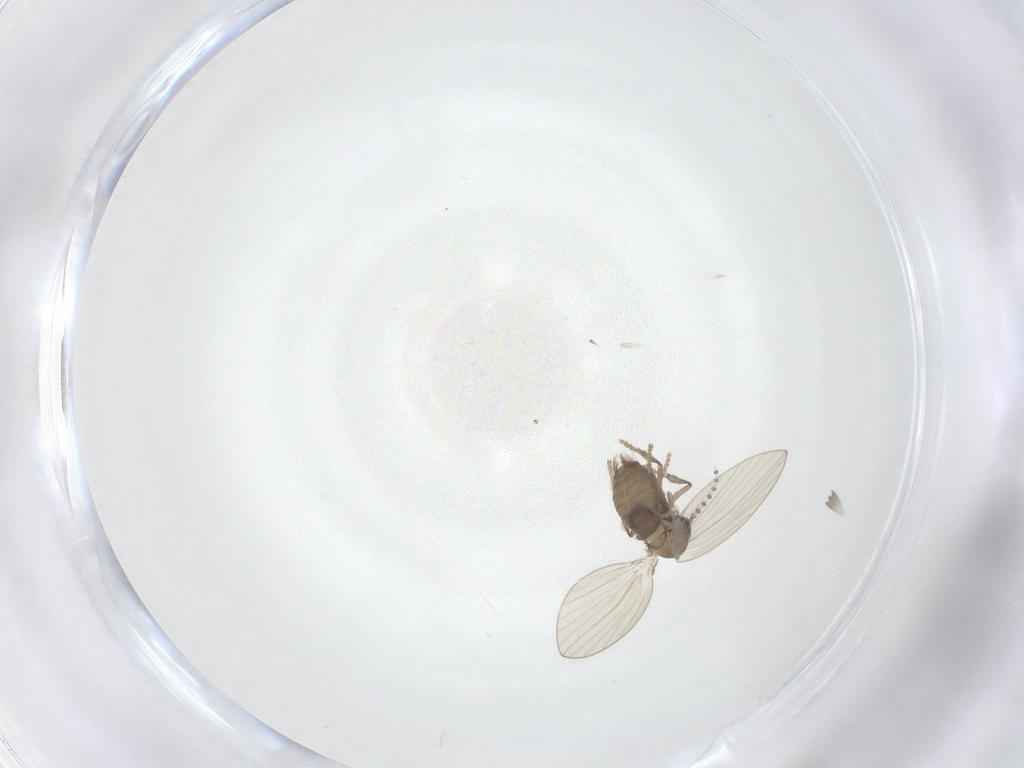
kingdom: Animalia
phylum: Arthropoda
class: Insecta
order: Diptera
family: Psychodidae
